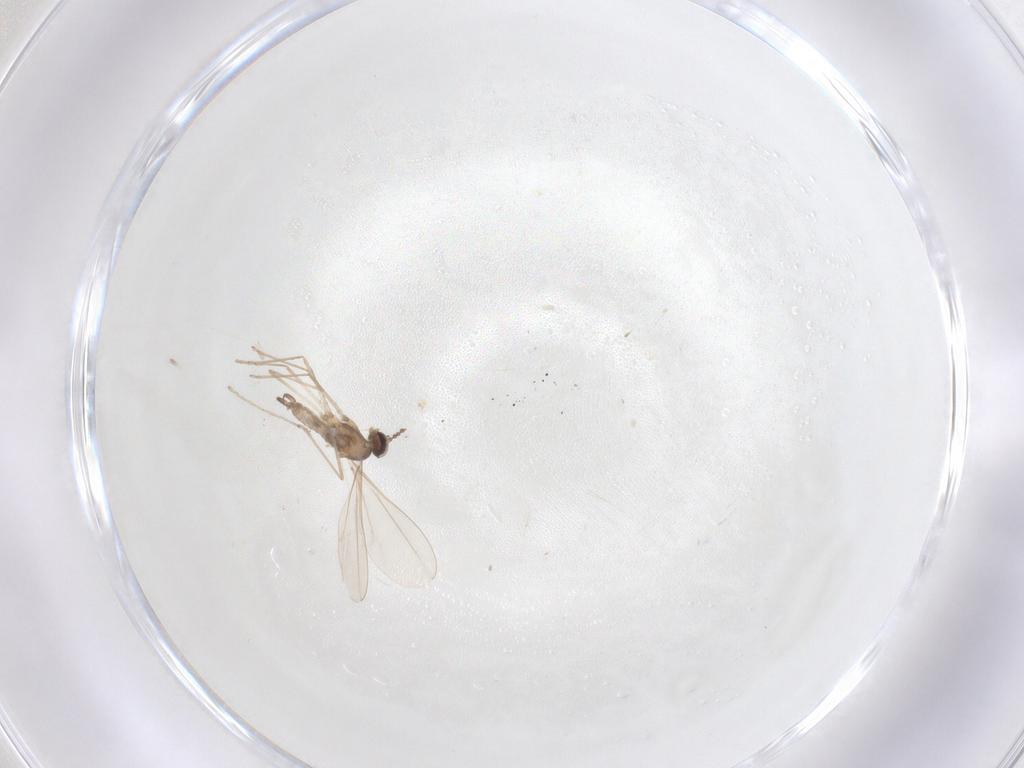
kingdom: Animalia
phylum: Arthropoda
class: Insecta
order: Diptera
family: Cecidomyiidae
